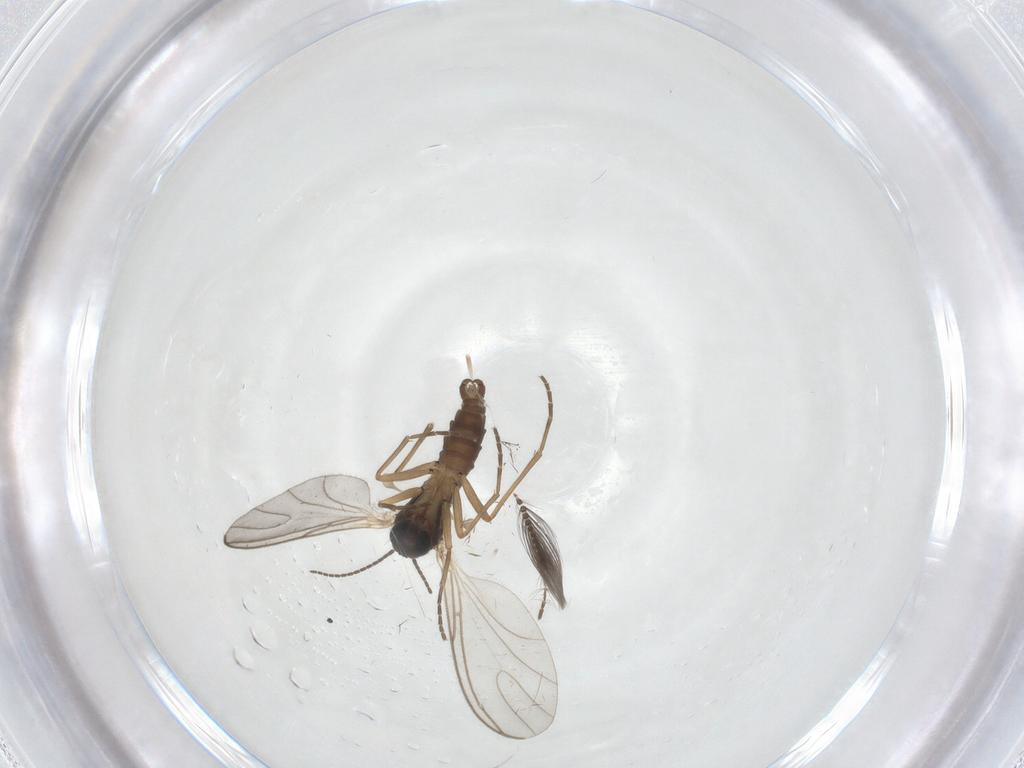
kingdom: Animalia
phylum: Arthropoda
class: Insecta
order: Diptera
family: Sciaridae
